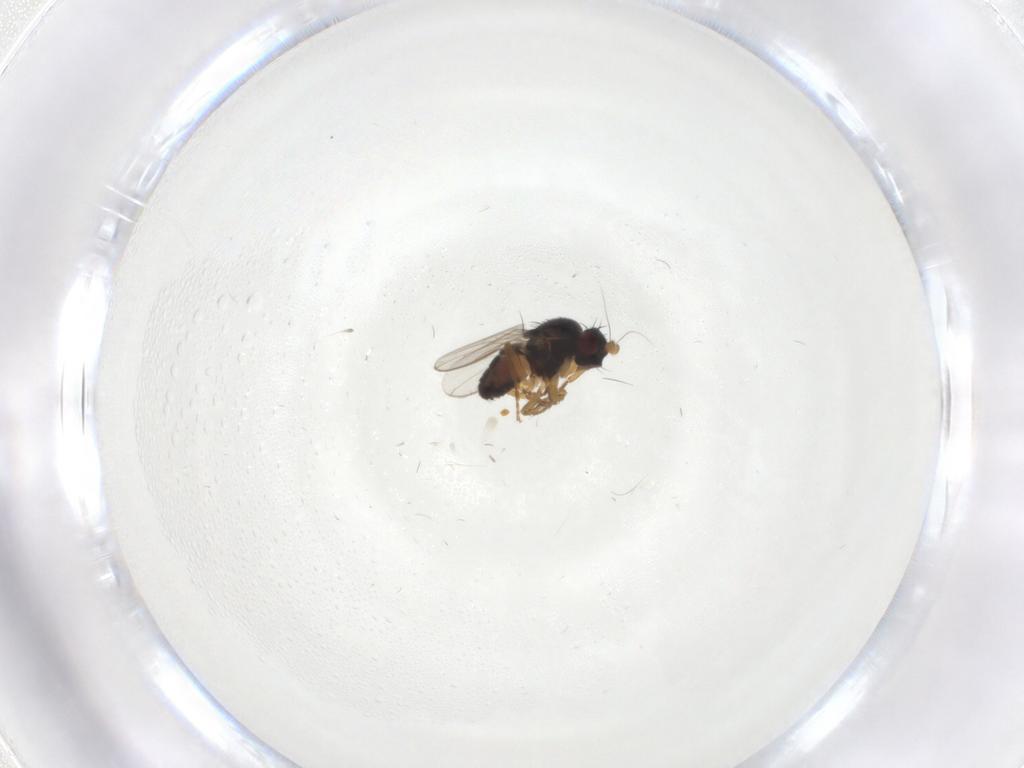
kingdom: Animalia
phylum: Arthropoda
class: Insecta
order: Diptera
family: Sphaeroceridae
